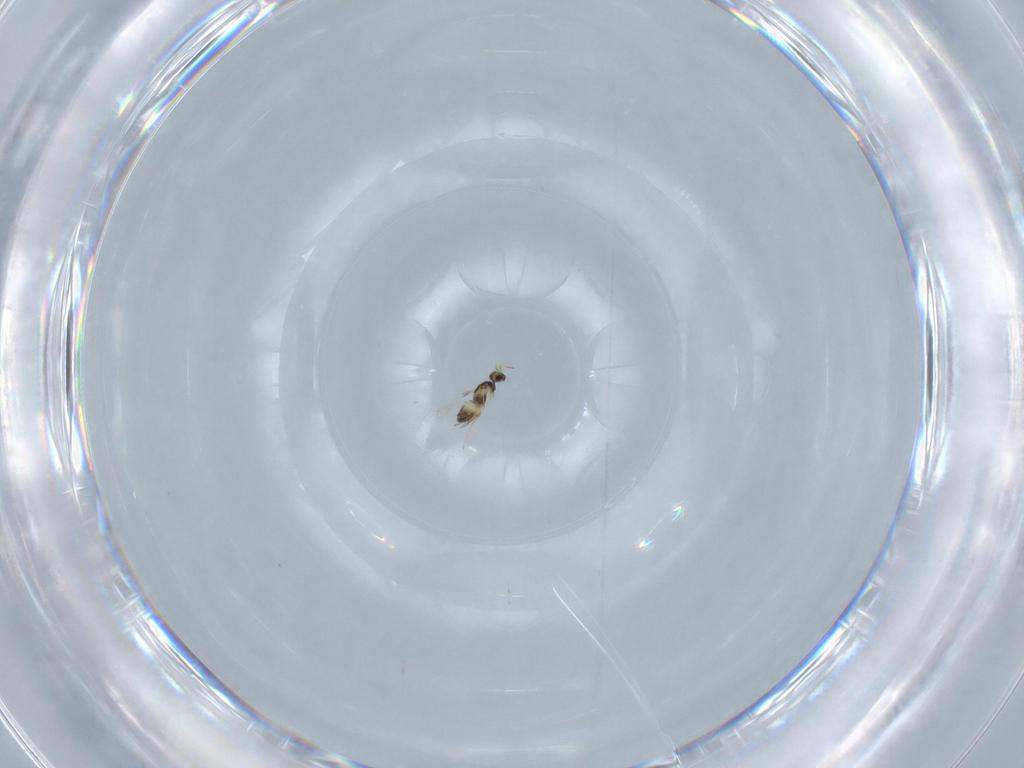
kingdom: Animalia
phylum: Arthropoda
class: Insecta
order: Hymenoptera
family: Mymaridae
